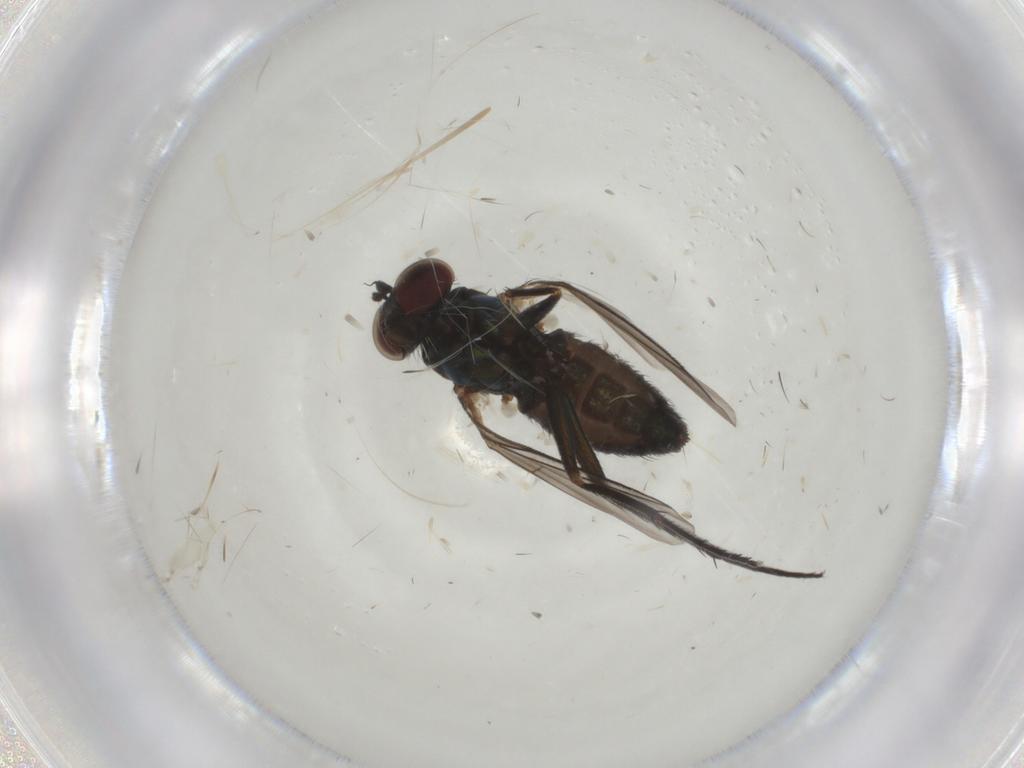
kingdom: Animalia
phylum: Arthropoda
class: Insecta
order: Diptera
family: Dolichopodidae
